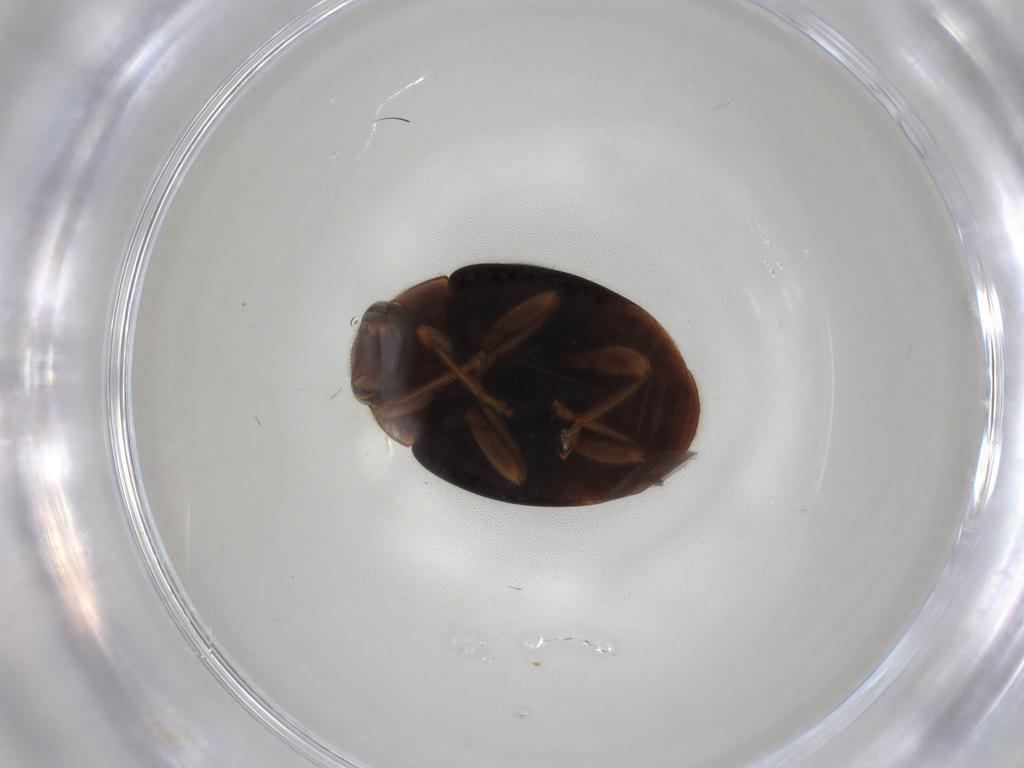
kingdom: Animalia
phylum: Arthropoda
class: Insecta
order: Coleoptera
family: Coccinellidae
